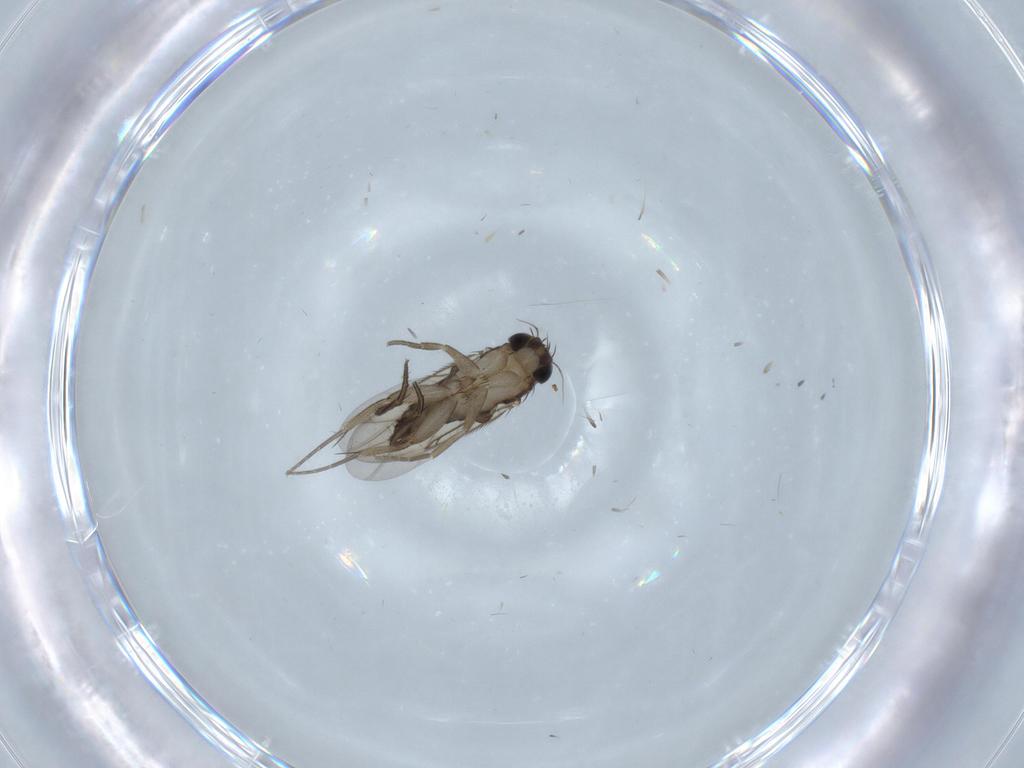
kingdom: Animalia
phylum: Arthropoda
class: Insecta
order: Diptera
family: Phoridae
